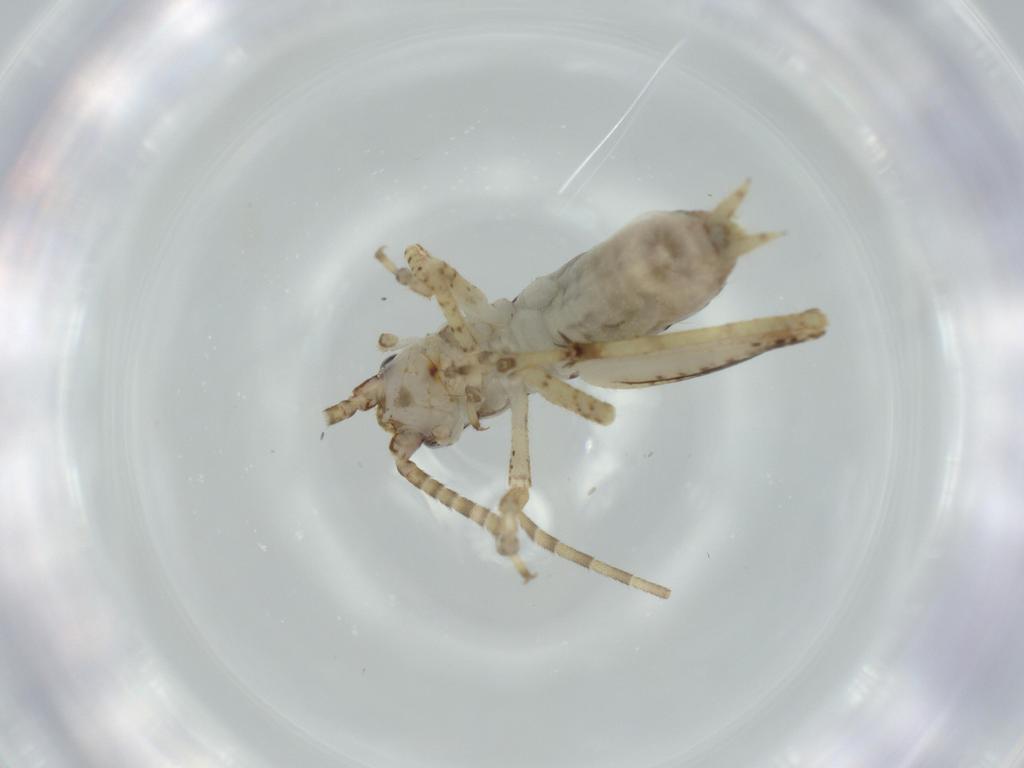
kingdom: Animalia
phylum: Arthropoda
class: Insecta
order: Orthoptera
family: Gryllidae
